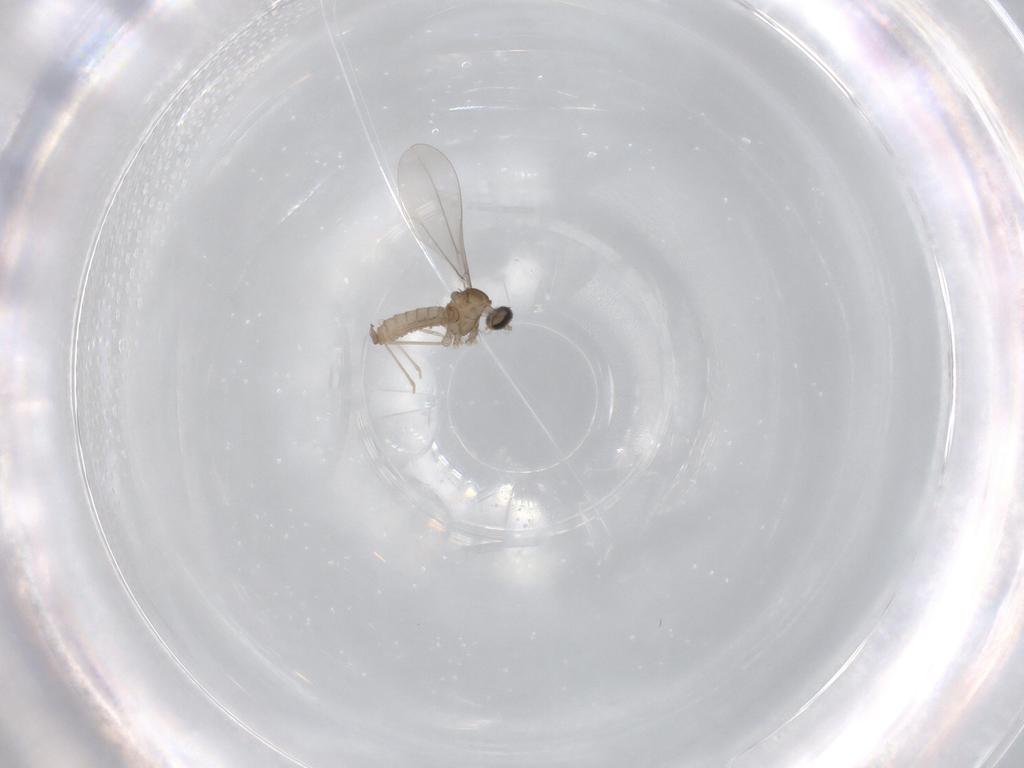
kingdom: Animalia
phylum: Arthropoda
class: Insecta
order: Diptera
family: Cecidomyiidae
